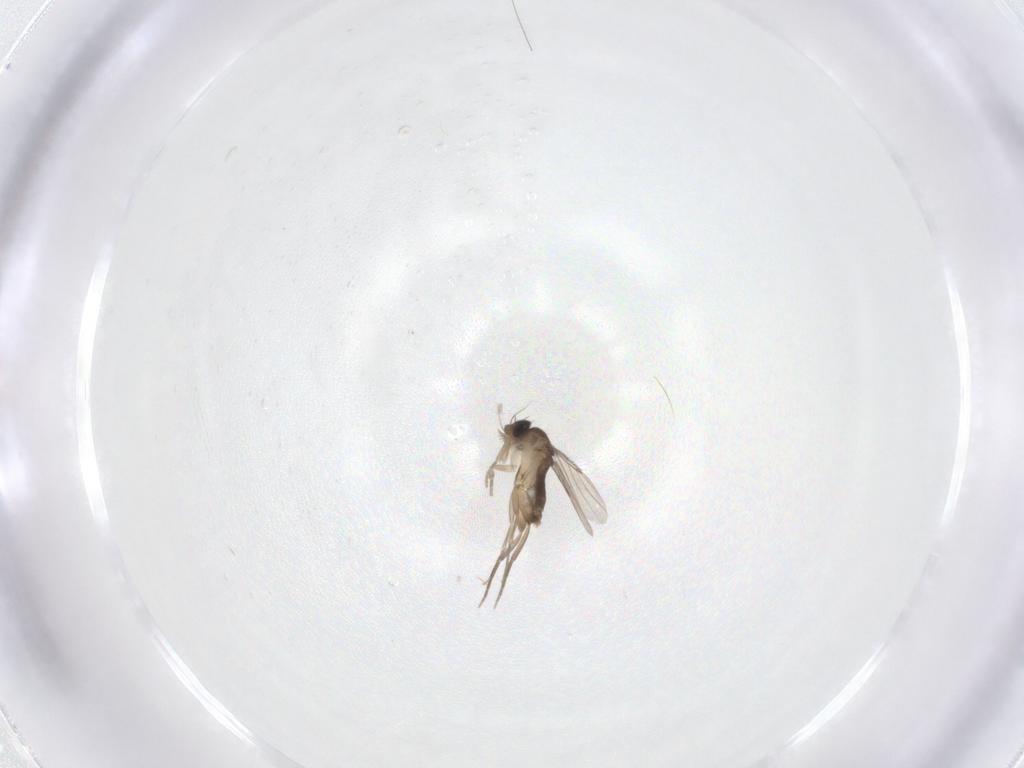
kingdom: Animalia
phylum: Arthropoda
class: Insecta
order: Diptera
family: Phoridae
